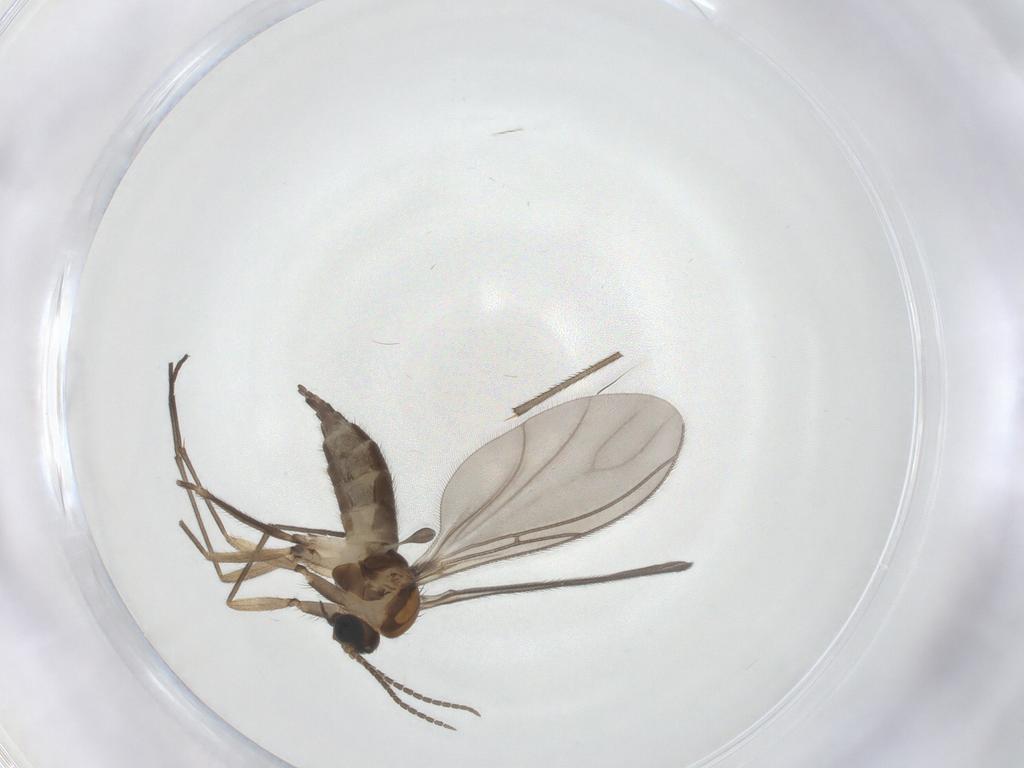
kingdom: Animalia
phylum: Arthropoda
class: Insecta
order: Diptera
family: Sciaridae
